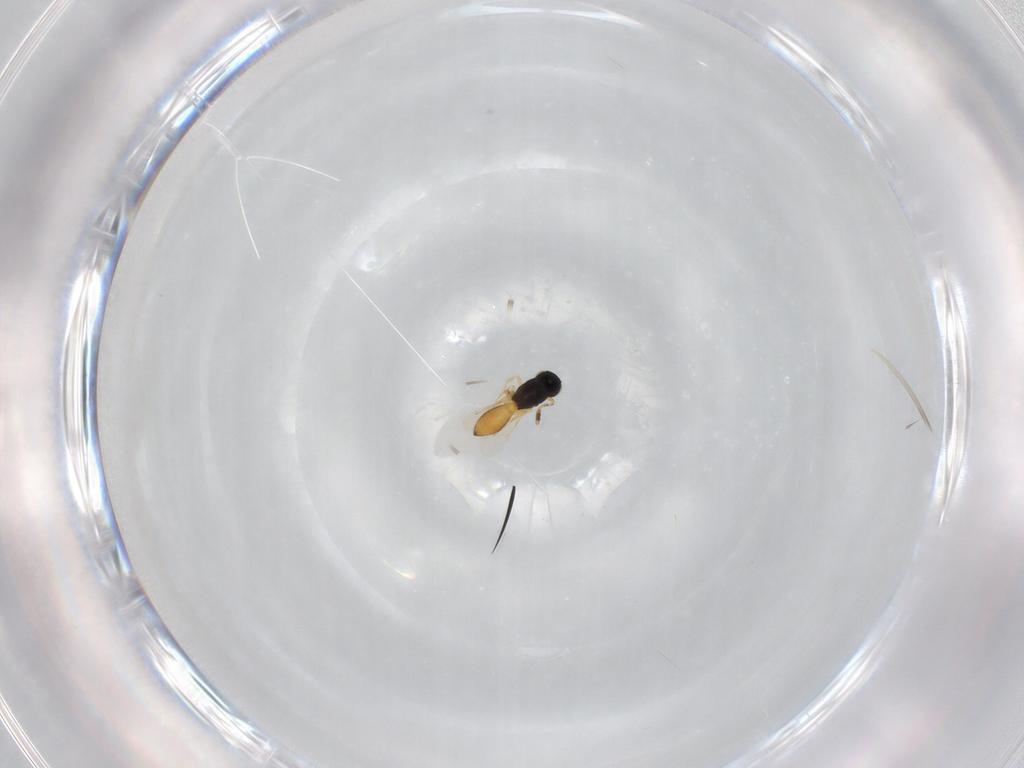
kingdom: Animalia
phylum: Arthropoda
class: Insecta
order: Hymenoptera
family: Scelionidae
